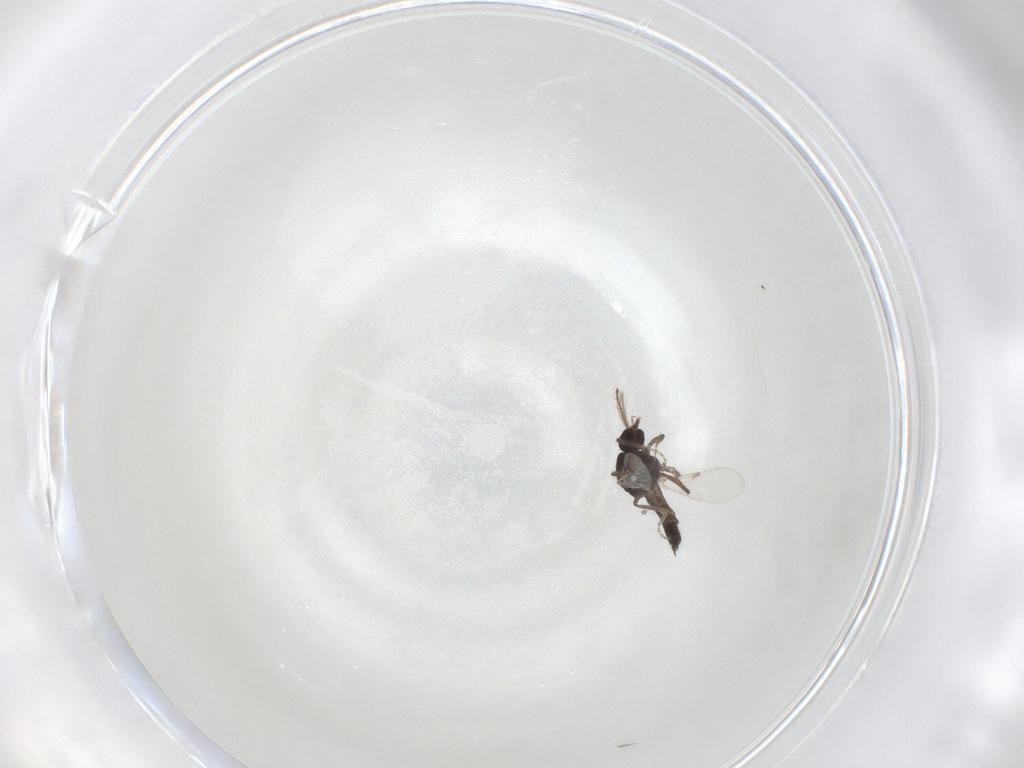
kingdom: Animalia
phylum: Arthropoda
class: Insecta
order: Diptera
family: Ceratopogonidae
